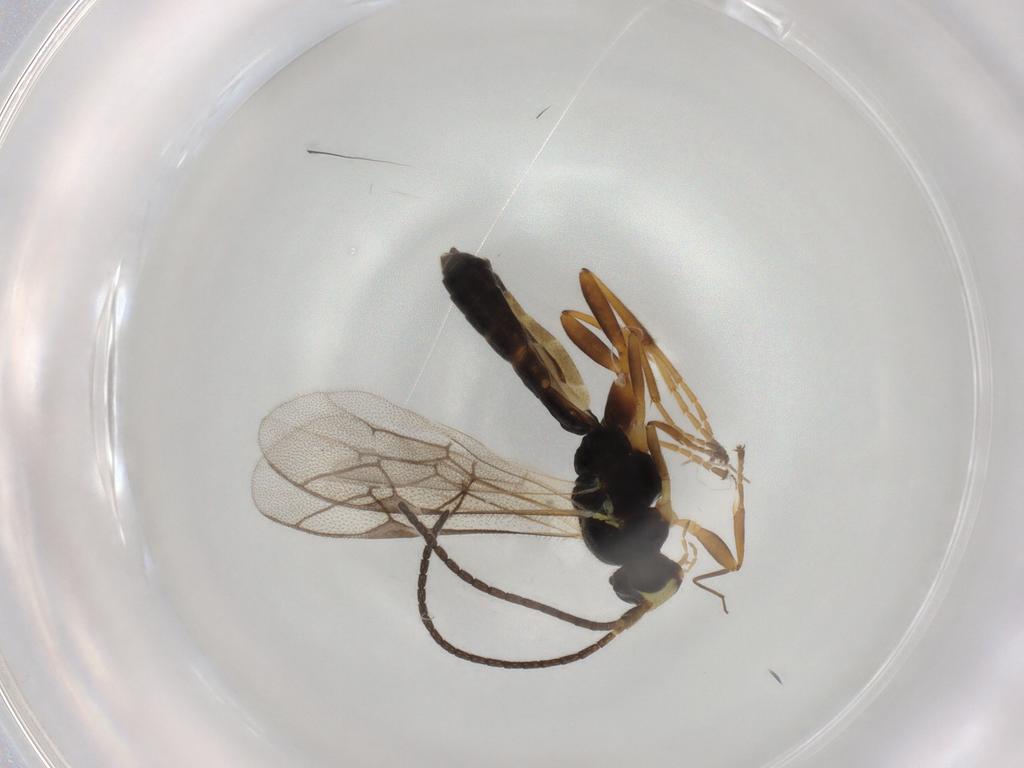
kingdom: Animalia
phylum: Arthropoda
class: Insecta
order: Hymenoptera
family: Ichneumonidae
